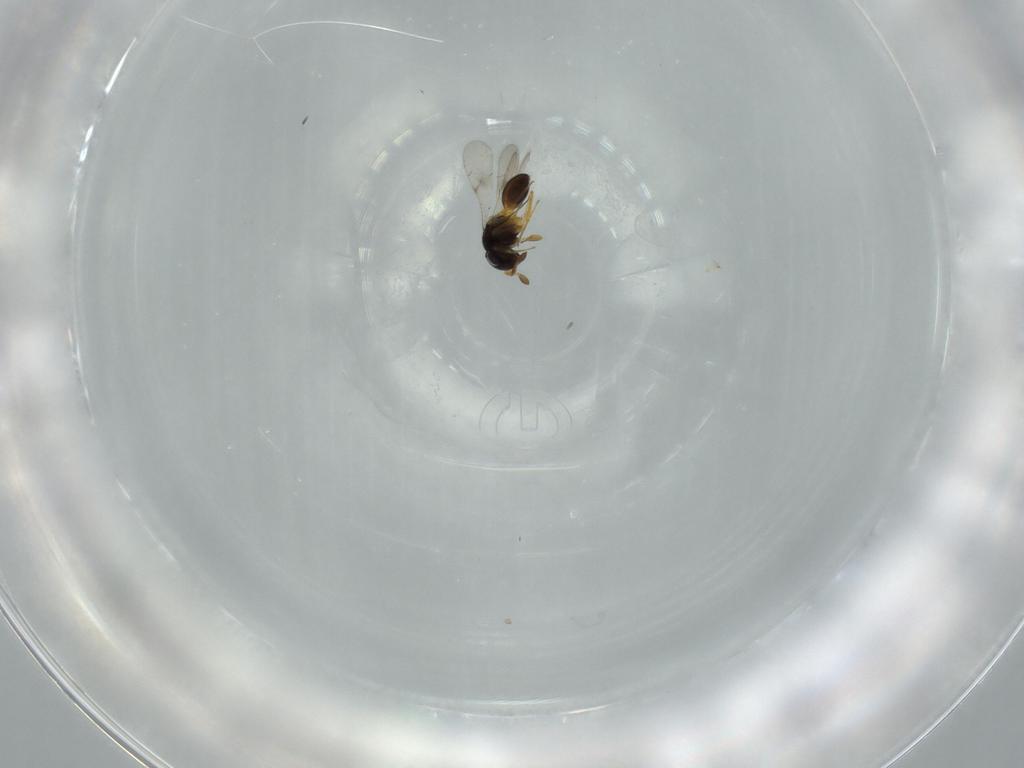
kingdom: Animalia
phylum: Arthropoda
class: Insecta
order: Hymenoptera
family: Scelionidae
